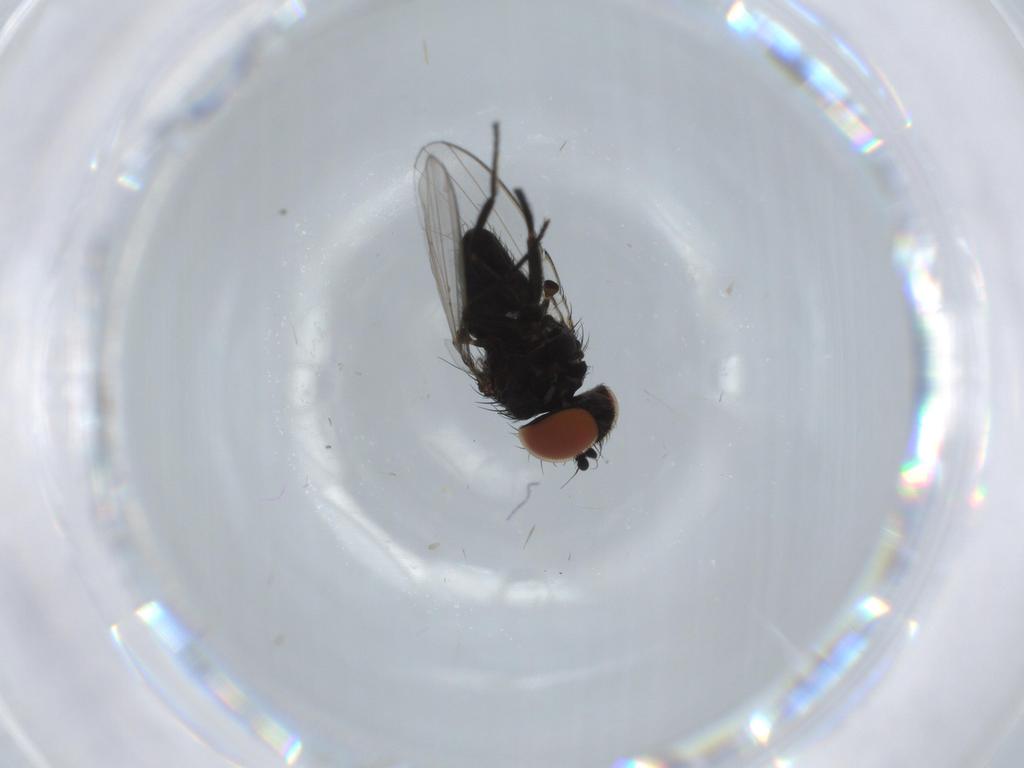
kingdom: Animalia
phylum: Arthropoda
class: Insecta
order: Diptera
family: Milichiidae
